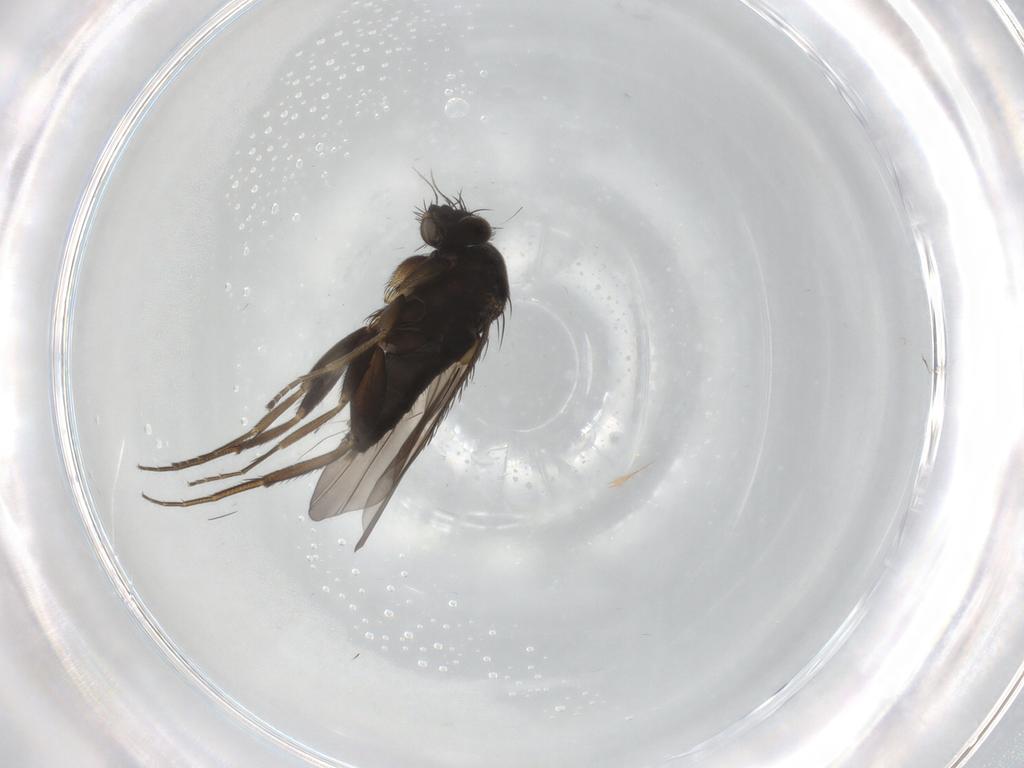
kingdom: Animalia
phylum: Arthropoda
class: Insecta
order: Diptera
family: Phoridae
